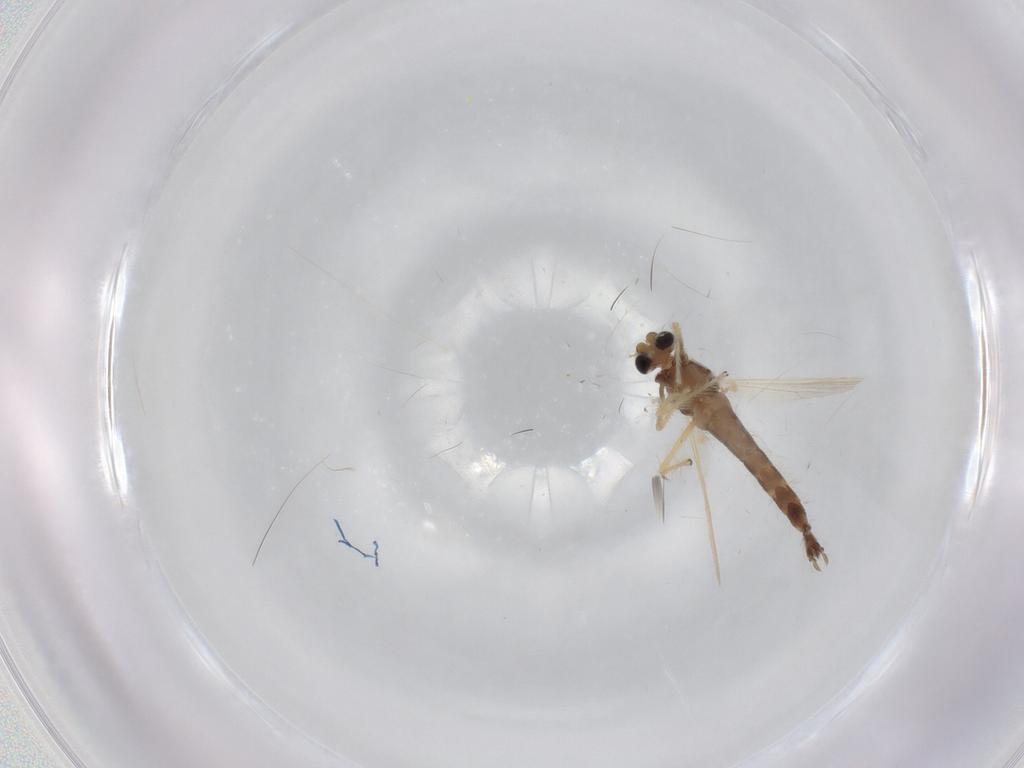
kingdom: Animalia
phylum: Arthropoda
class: Insecta
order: Diptera
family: Chironomidae
